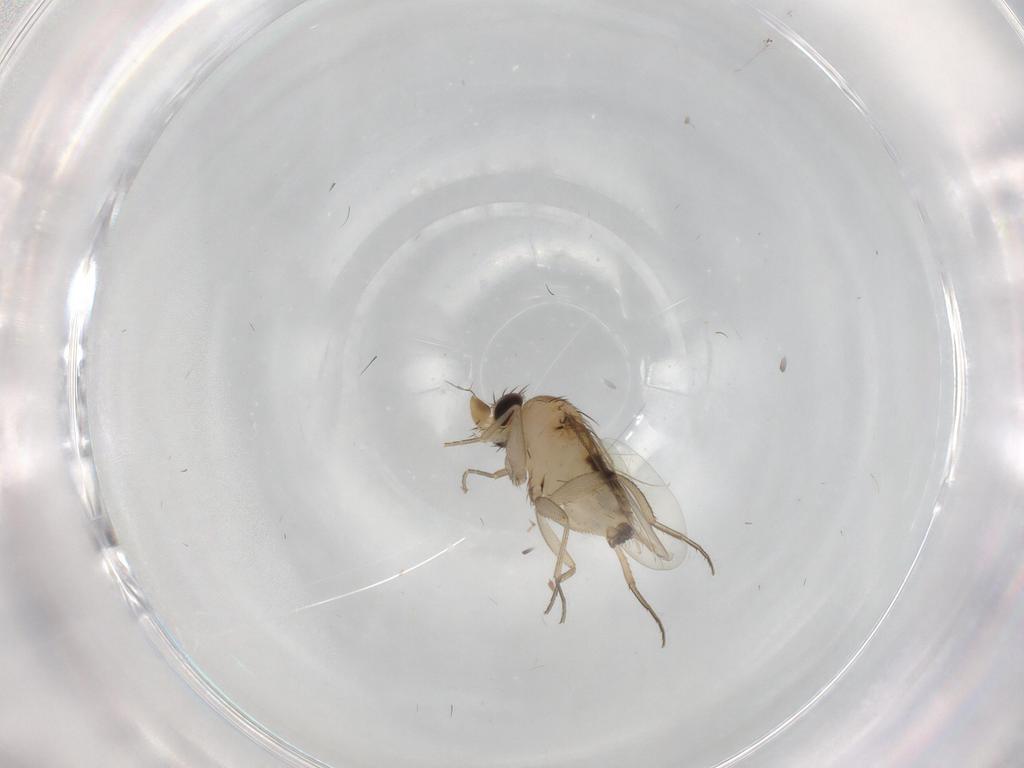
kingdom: Animalia
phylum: Arthropoda
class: Insecta
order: Diptera
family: Phoridae
